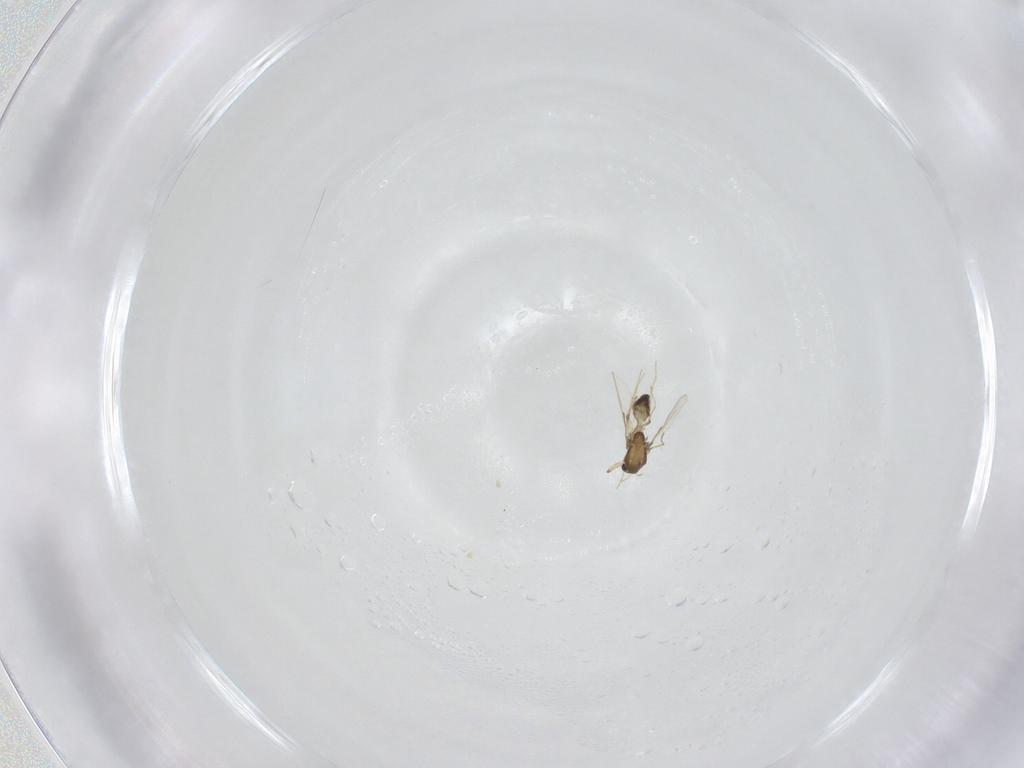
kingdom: Animalia
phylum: Arthropoda
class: Insecta
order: Diptera
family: Chironomidae
